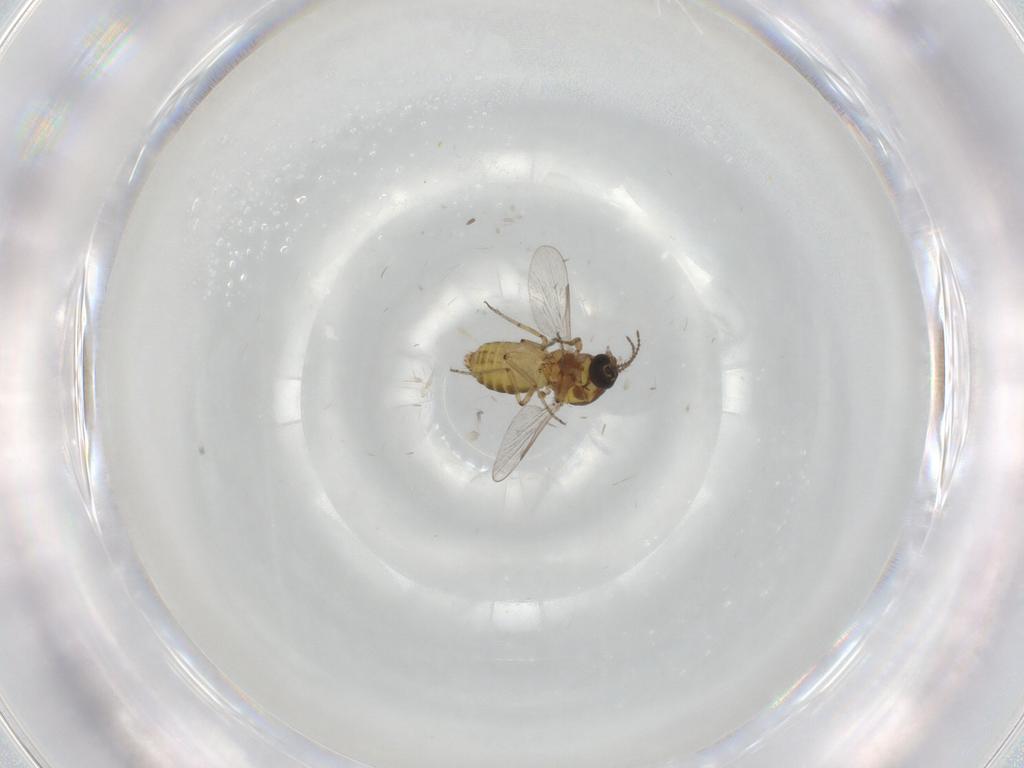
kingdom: Animalia
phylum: Arthropoda
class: Insecta
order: Diptera
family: Ceratopogonidae
